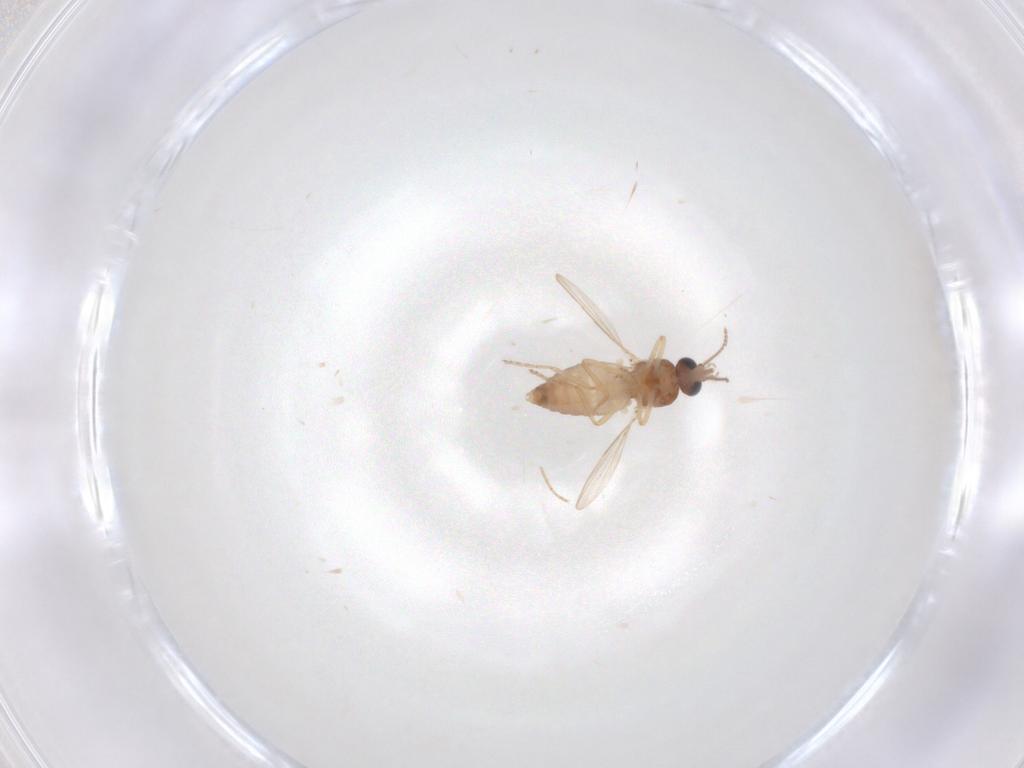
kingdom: Animalia
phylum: Arthropoda
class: Insecta
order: Diptera
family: Ceratopogonidae
